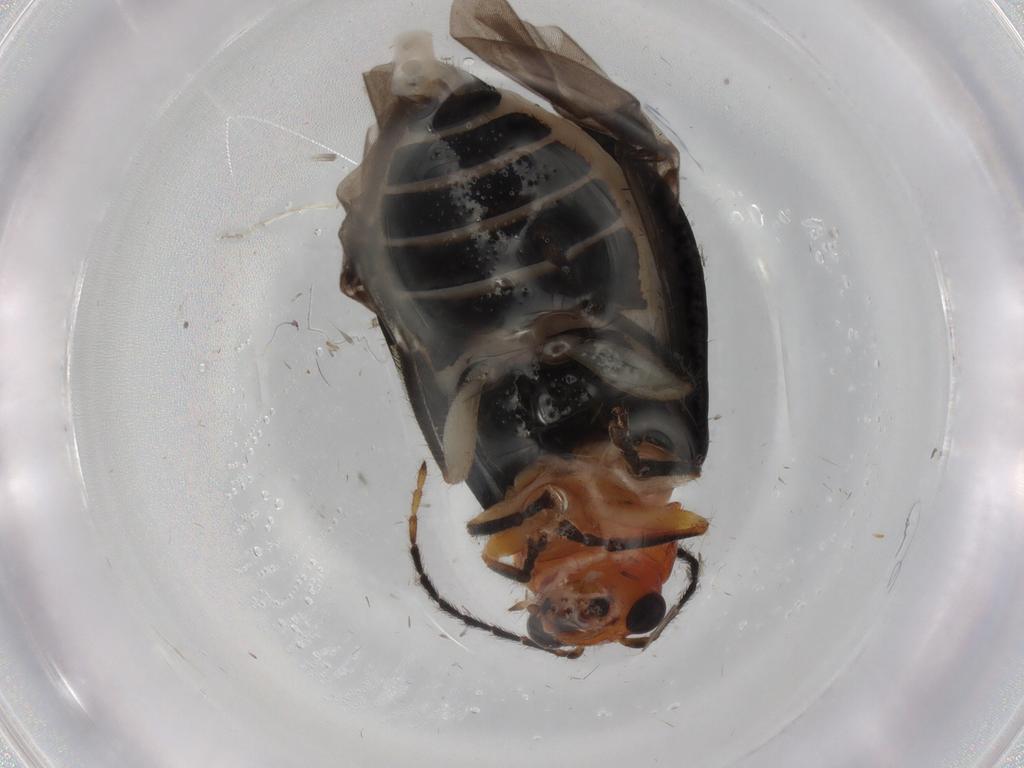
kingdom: Animalia
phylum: Arthropoda
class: Insecta
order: Coleoptera
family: Chrysomelidae
